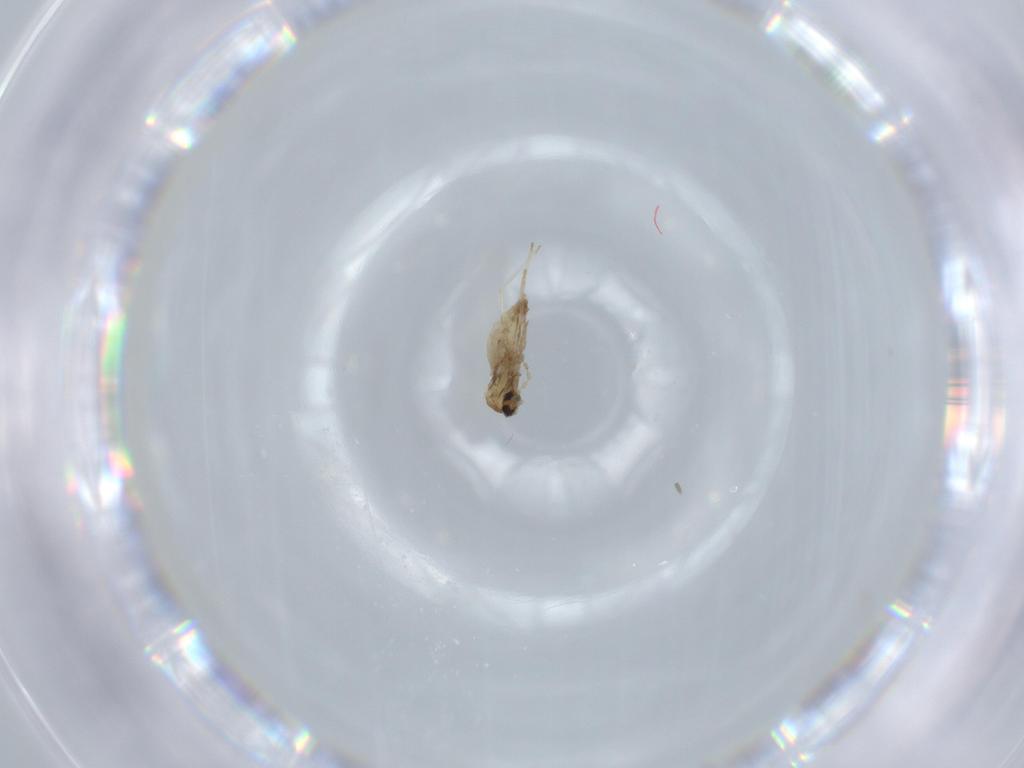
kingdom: Animalia
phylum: Arthropoda
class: Insecta
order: Diptera
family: Cecidomyiidae
